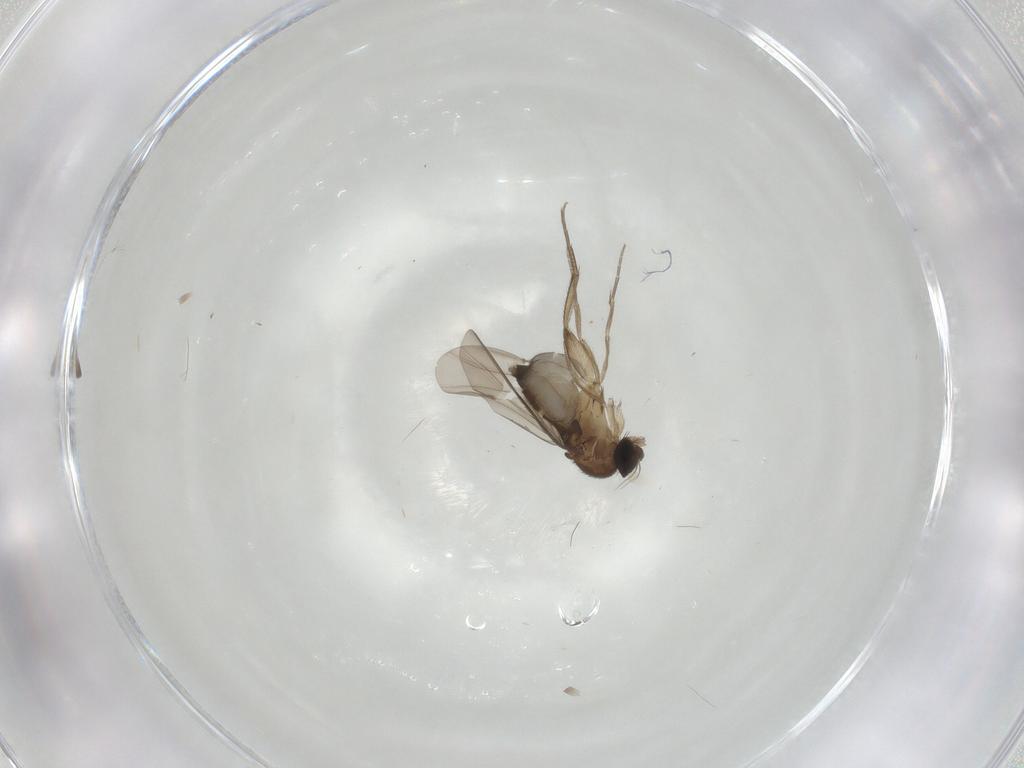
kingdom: Animalia
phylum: Arthropoda
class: Insecta
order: Diptera
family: Phoridae
